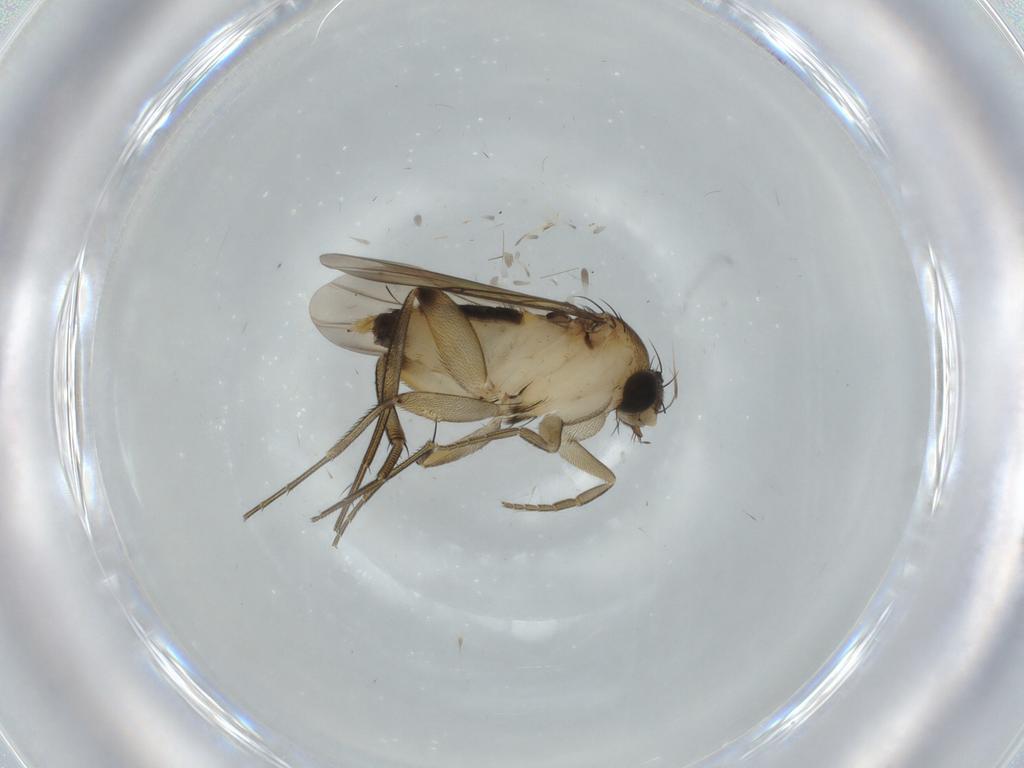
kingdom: Animalia
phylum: Arthropoda
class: Insecta
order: Diptera
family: Phoridae
